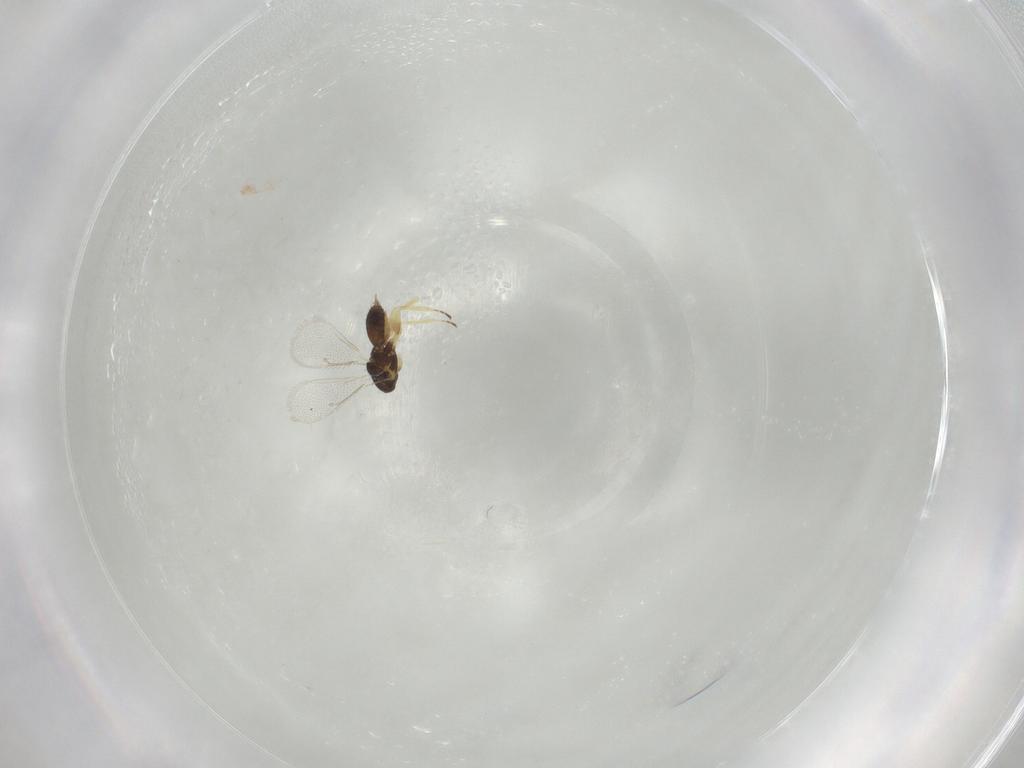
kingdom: Animalia
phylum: Arthropoda
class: Insecta
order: Hymenoptera
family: Eulophidae
